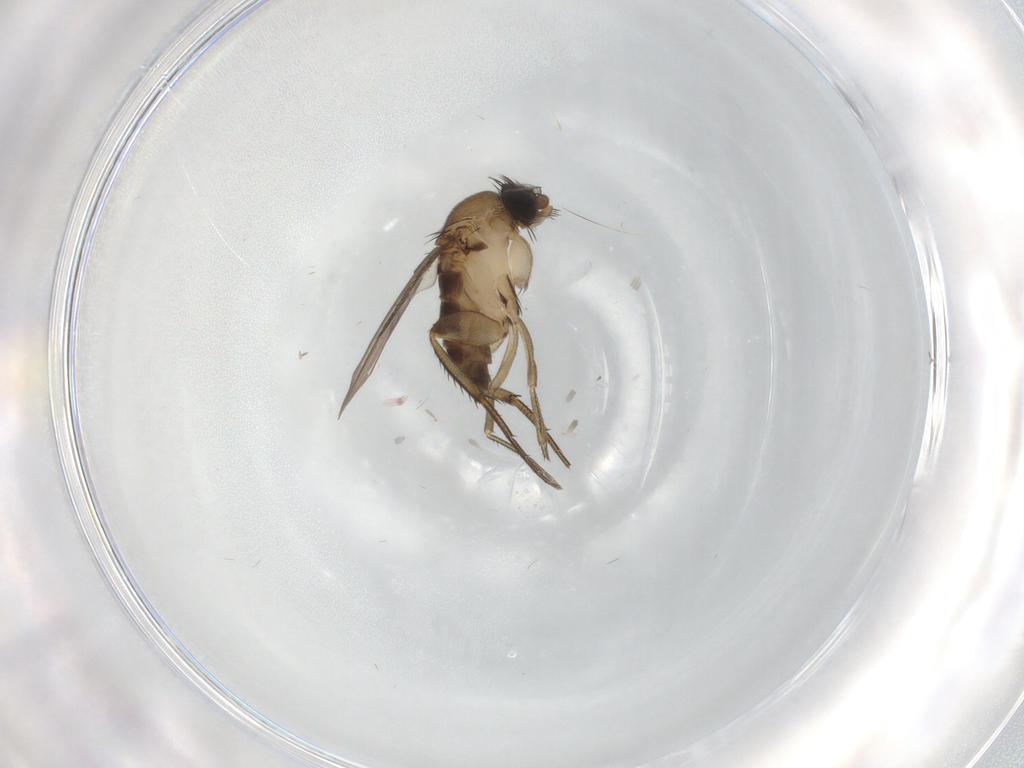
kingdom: Animalia
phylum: Arthropoda
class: Insecta
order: Diptera
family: Phoridae
